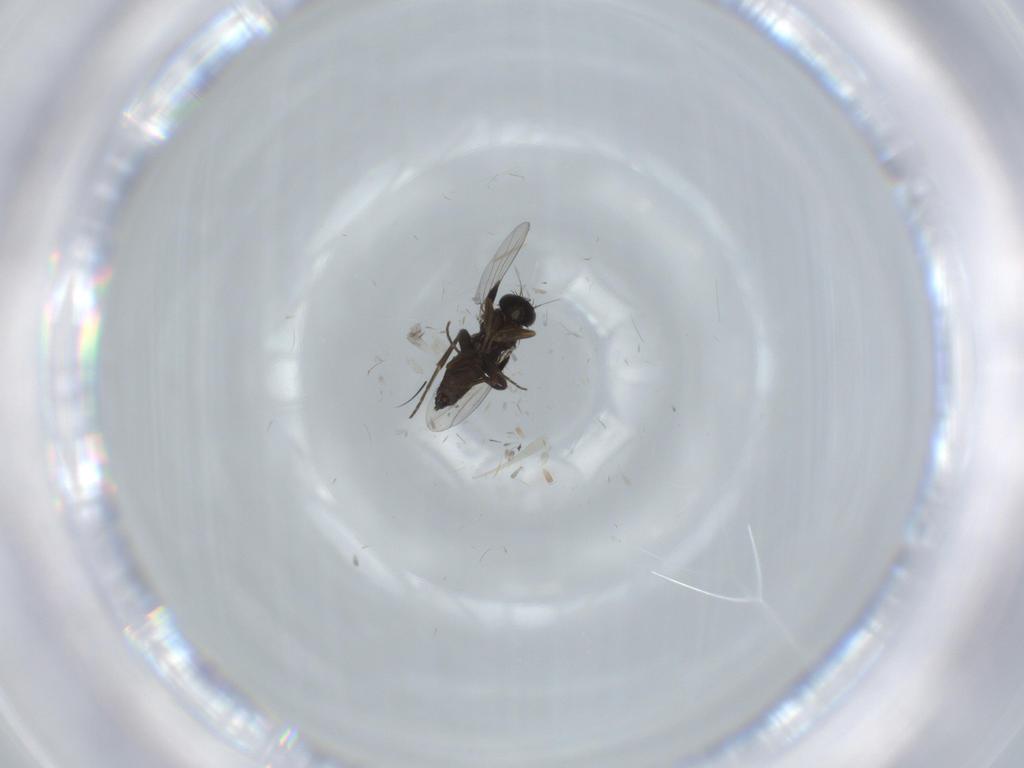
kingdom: Animalia
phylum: Arthropoda
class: Insecta
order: Diptera
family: Phoridae
